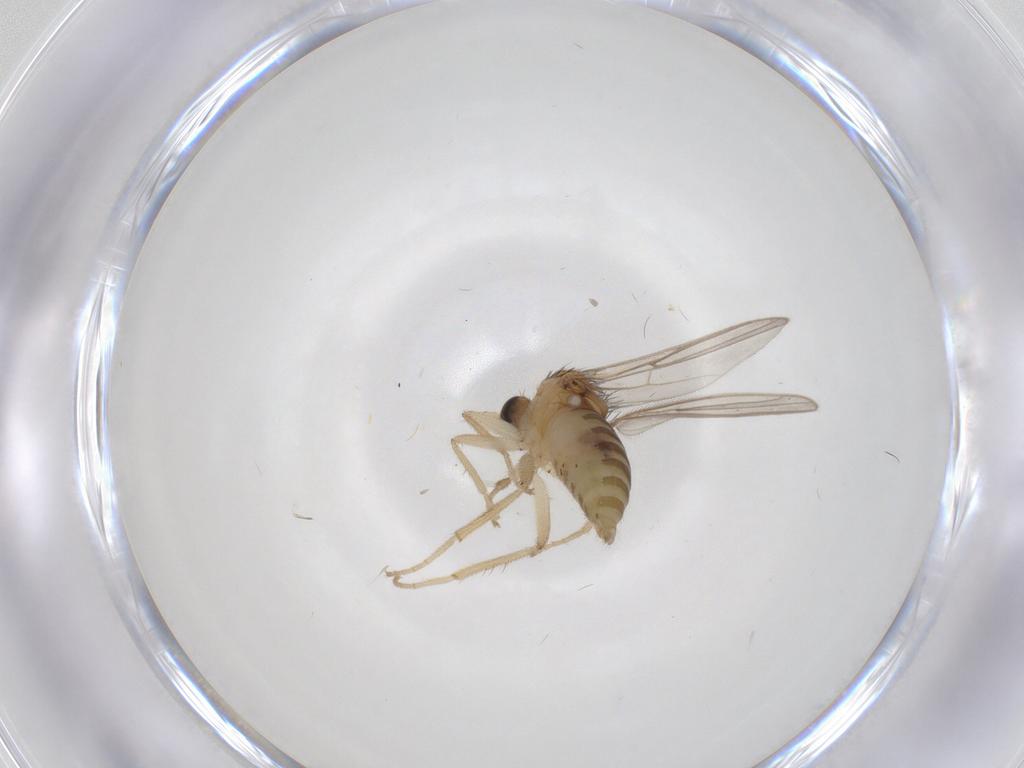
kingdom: Animalia
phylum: Arthropoda
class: Insecta
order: Diptera
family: Hybotidae
